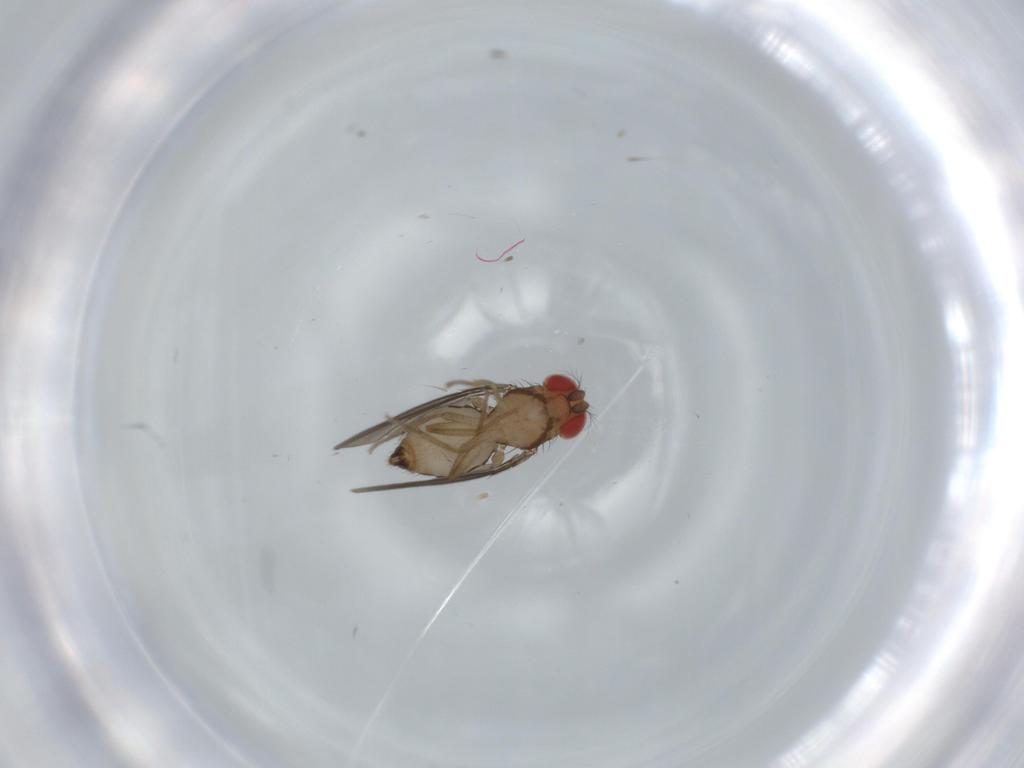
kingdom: Animalia
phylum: Arthropoda
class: Insecta
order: Diptera
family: Drosophilidae
